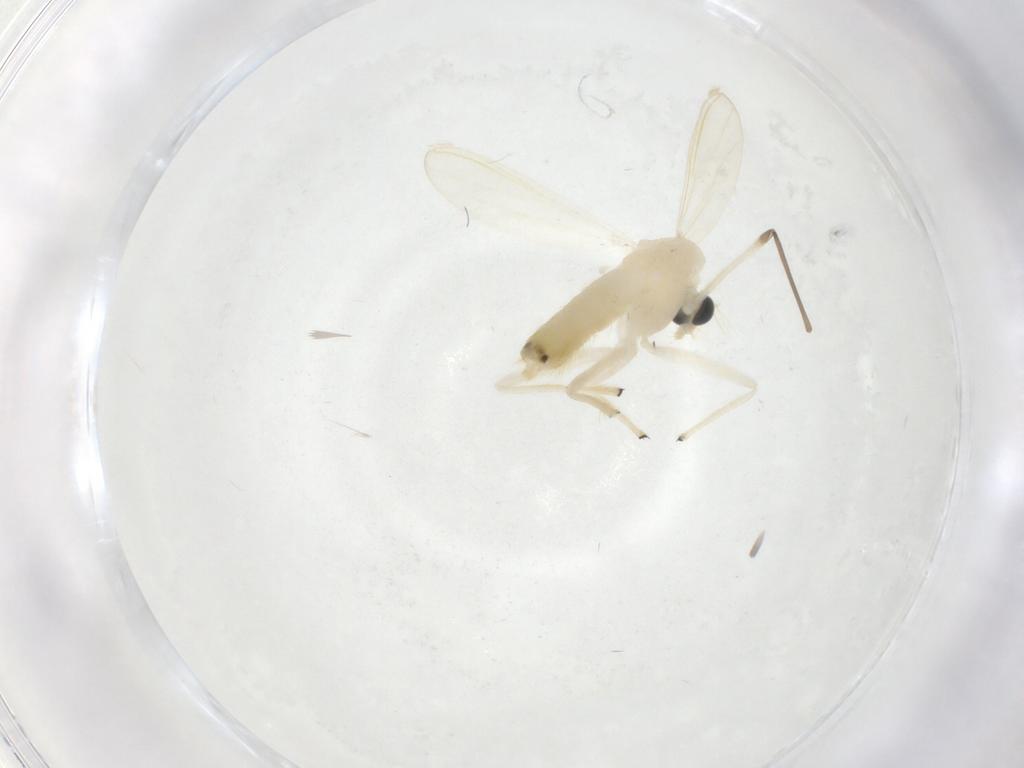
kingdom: Animalia
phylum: Arthropoda
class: Insecta
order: Diptera
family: Chironomidae
